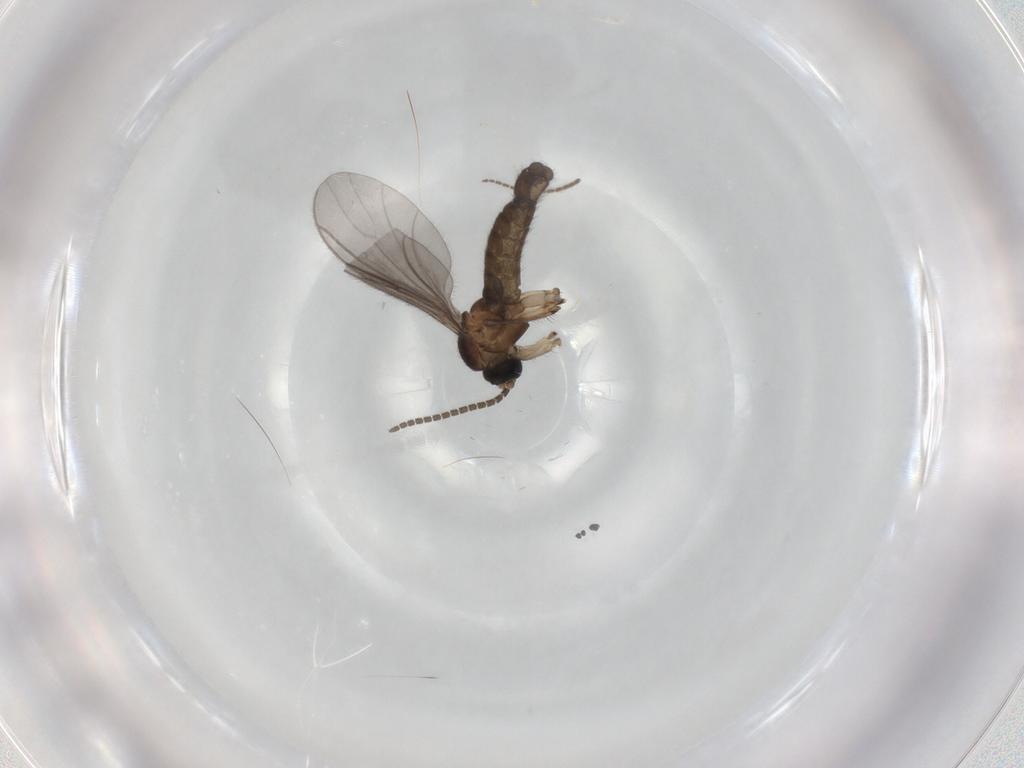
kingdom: Animalia
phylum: Arthropoda
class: Insecta
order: Diptera
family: Sciaridae
